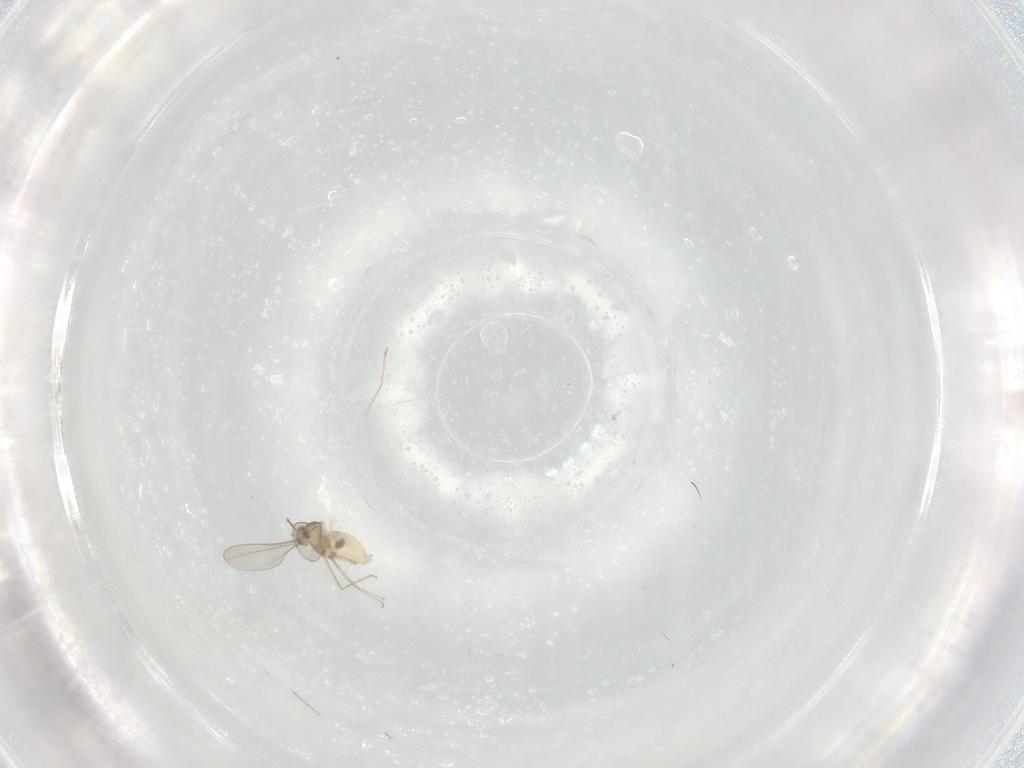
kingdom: Animalia
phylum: Arthropoda
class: Insecta
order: Diptera
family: Cecidomyiidae
